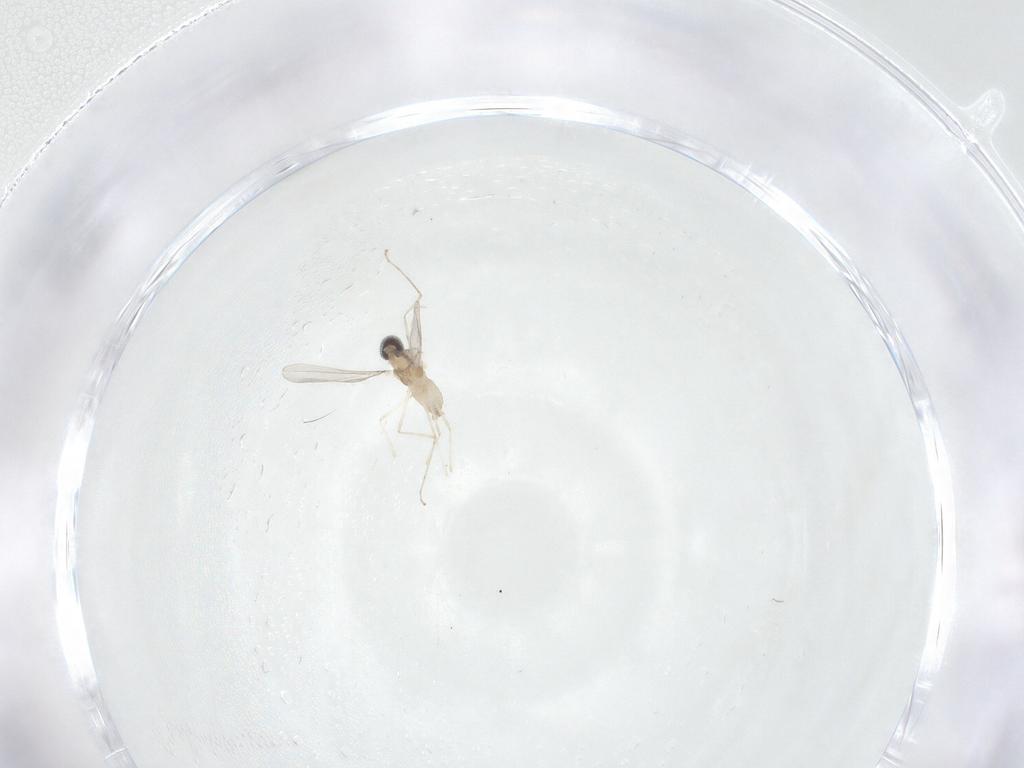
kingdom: Animalia
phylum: Arthropoda
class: Insecta
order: Diptera
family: Cecidomyiidae
